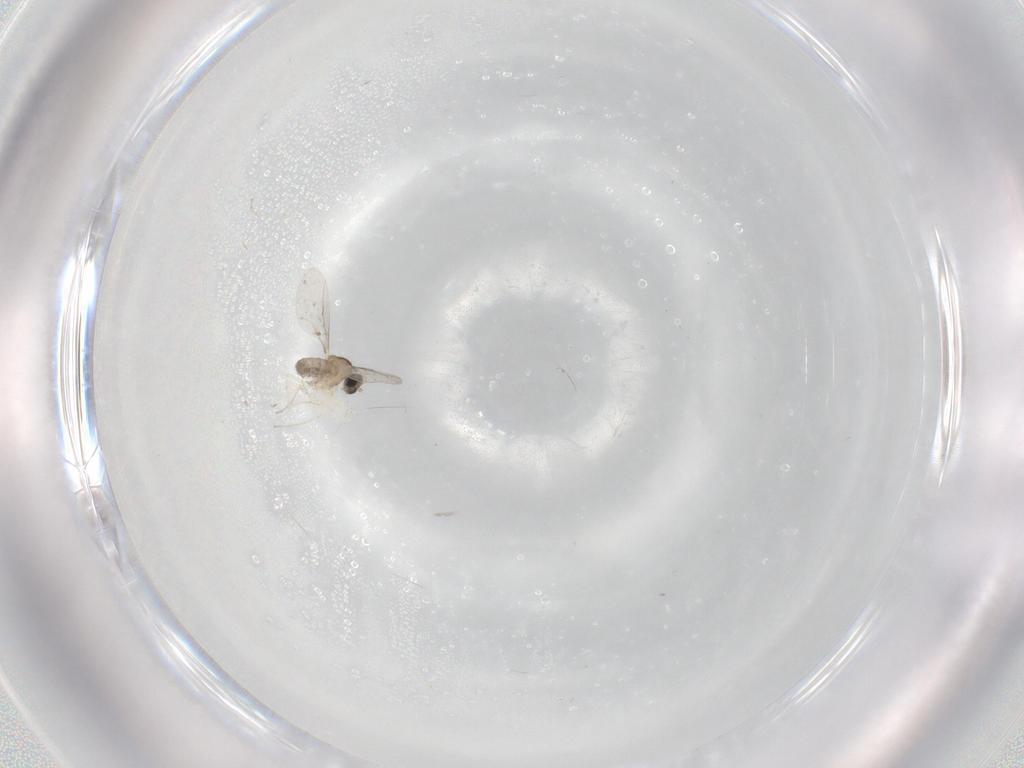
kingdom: Animalia
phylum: Arthropoda
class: Insecta
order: Diptera
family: Cecidomyiidae
